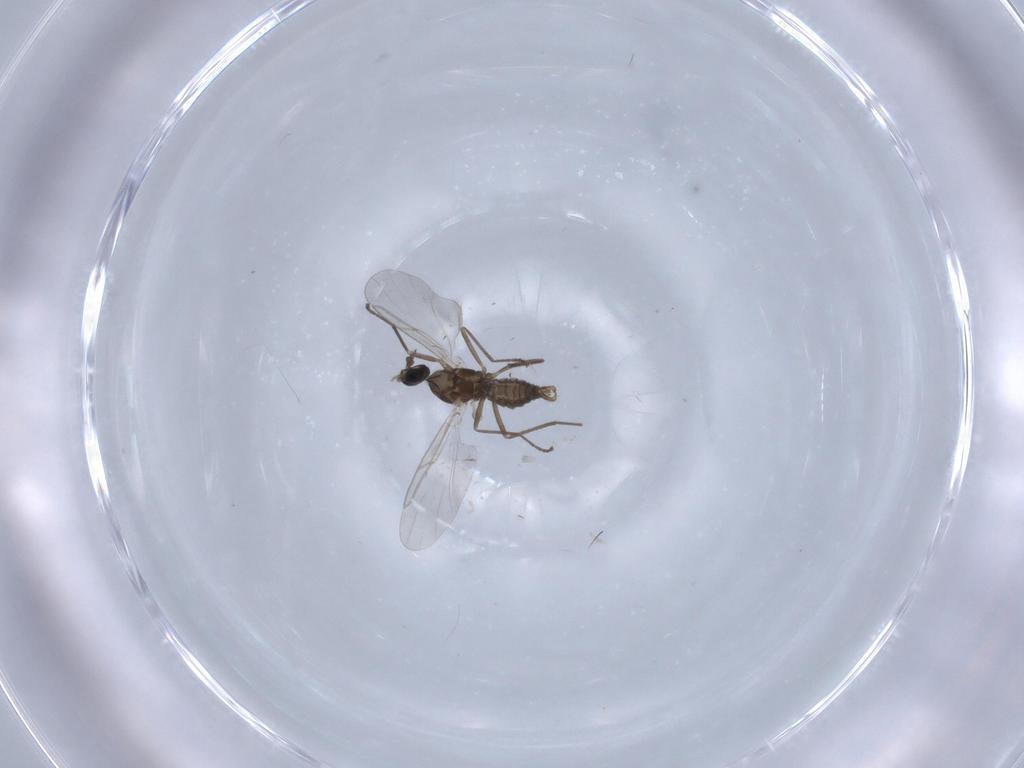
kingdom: Animalia
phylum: Arthropoda
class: Insecta
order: Diptera
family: Cecidomyiidae
